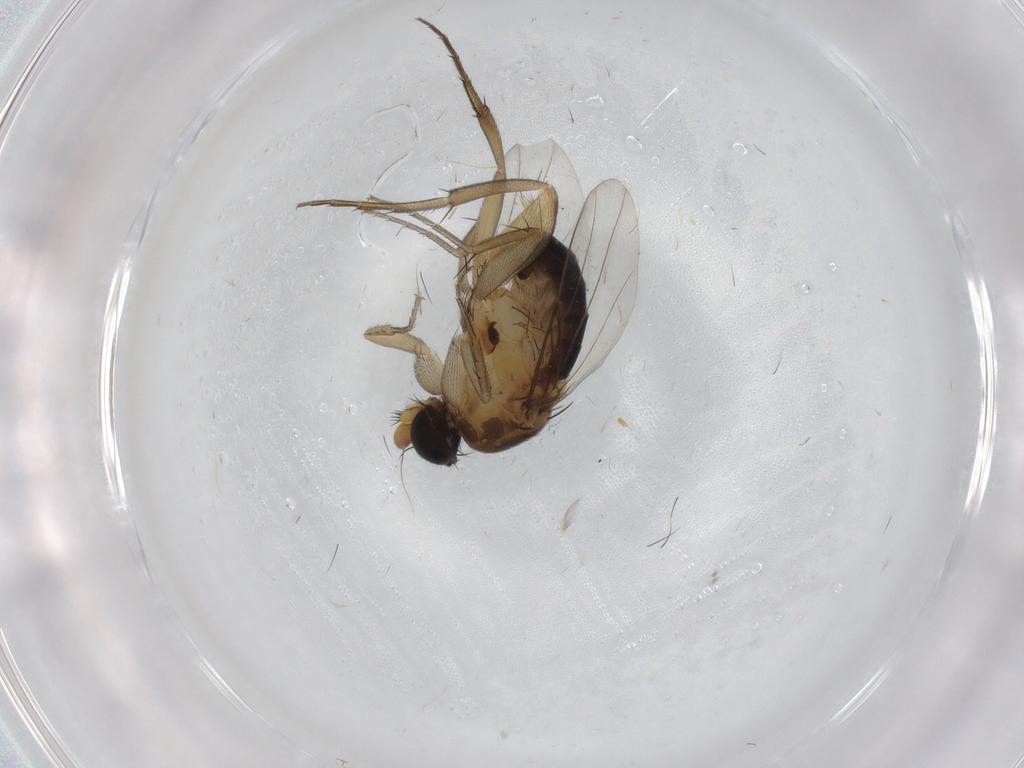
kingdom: Animalia
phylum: Arthropoda
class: Insecta
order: Diptera
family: Phoridae
